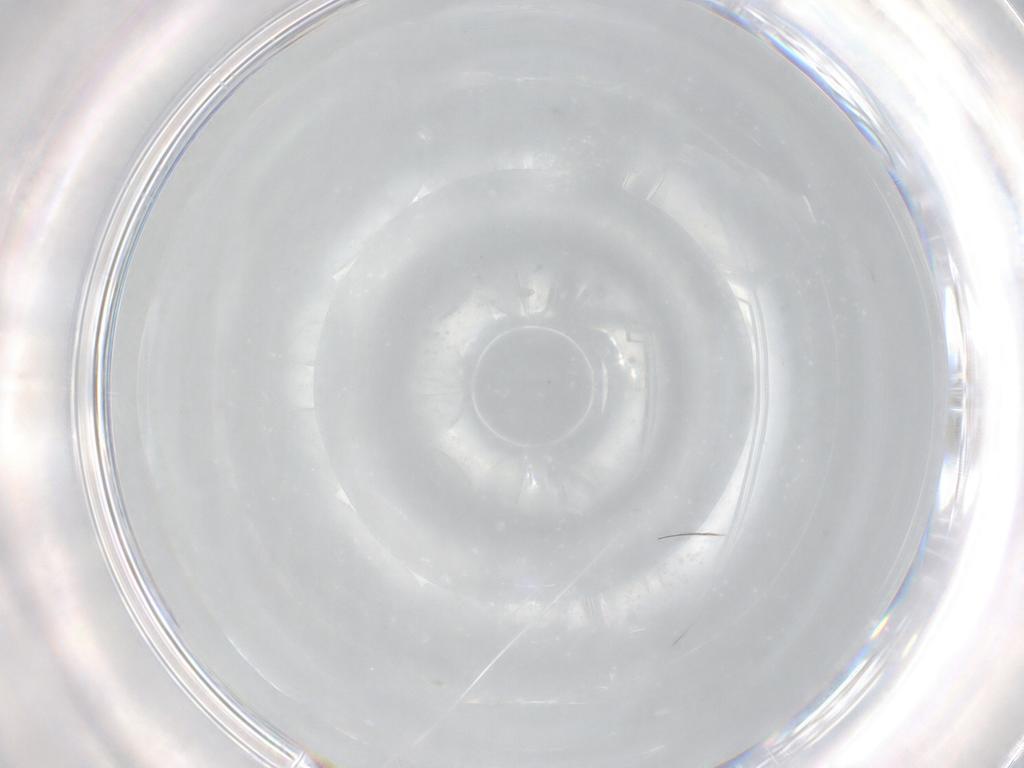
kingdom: Animalia
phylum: Arthropoda
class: Insecta
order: Hymenoptera
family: Mymaridae
